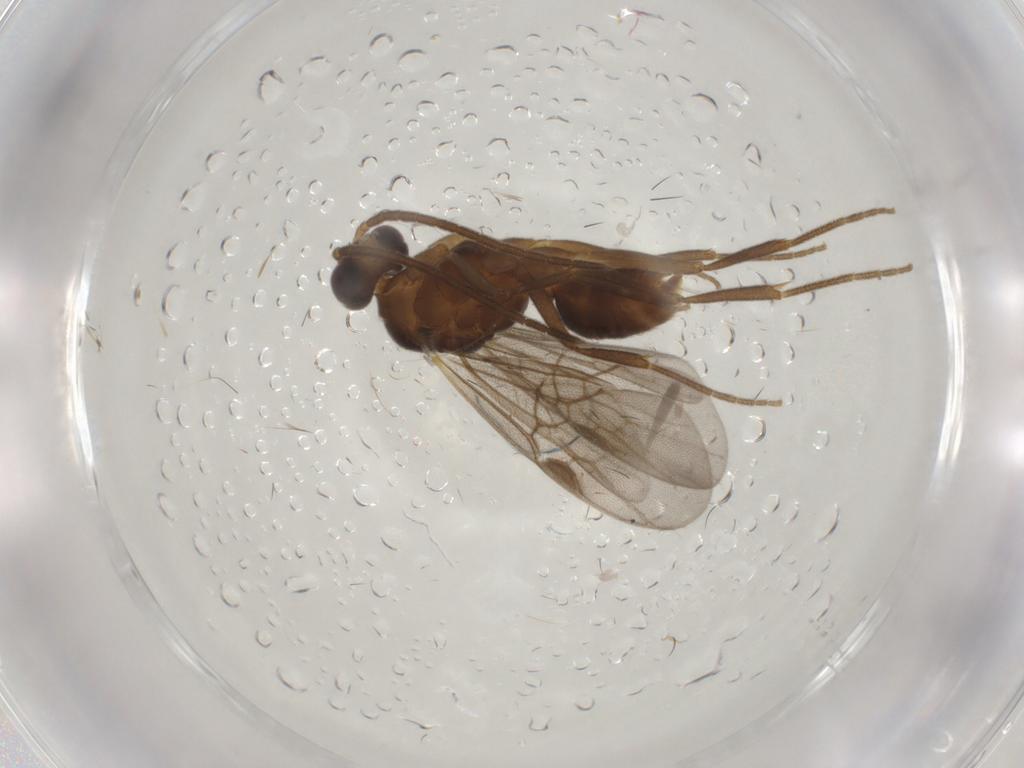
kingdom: Animalia
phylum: Arthropoda
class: Insecta
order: Hymenoptera
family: Formicidae
